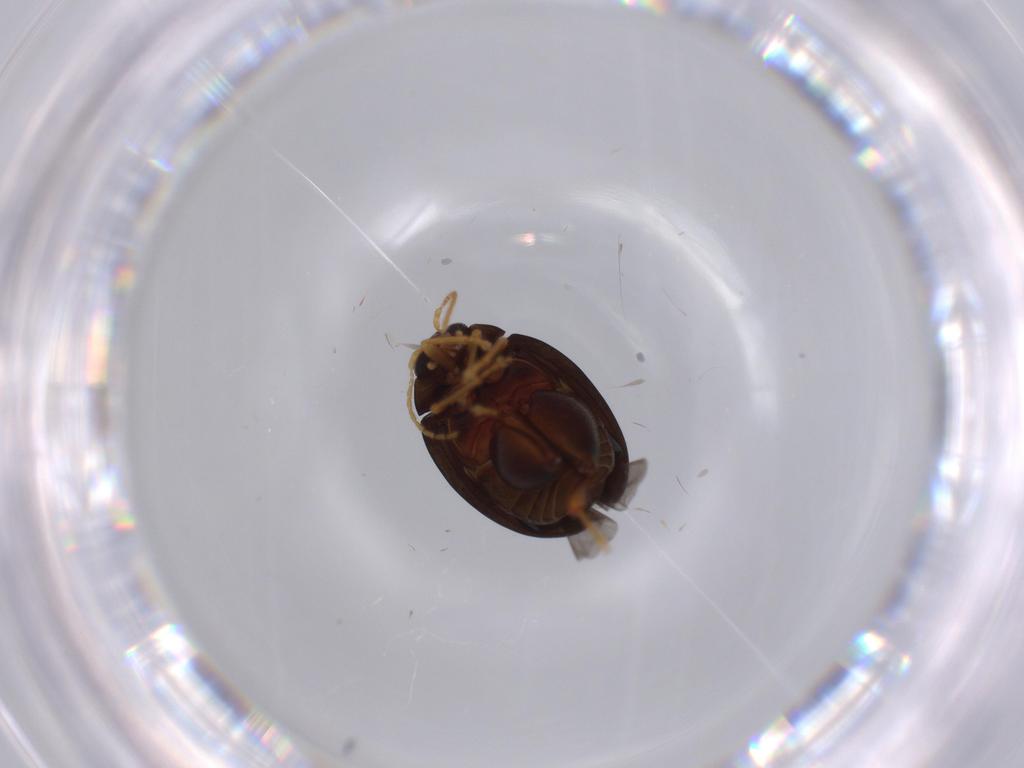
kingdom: Animalia
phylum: Arthropoda
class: Insecta
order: Coleoptera
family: Chrysomelidae
